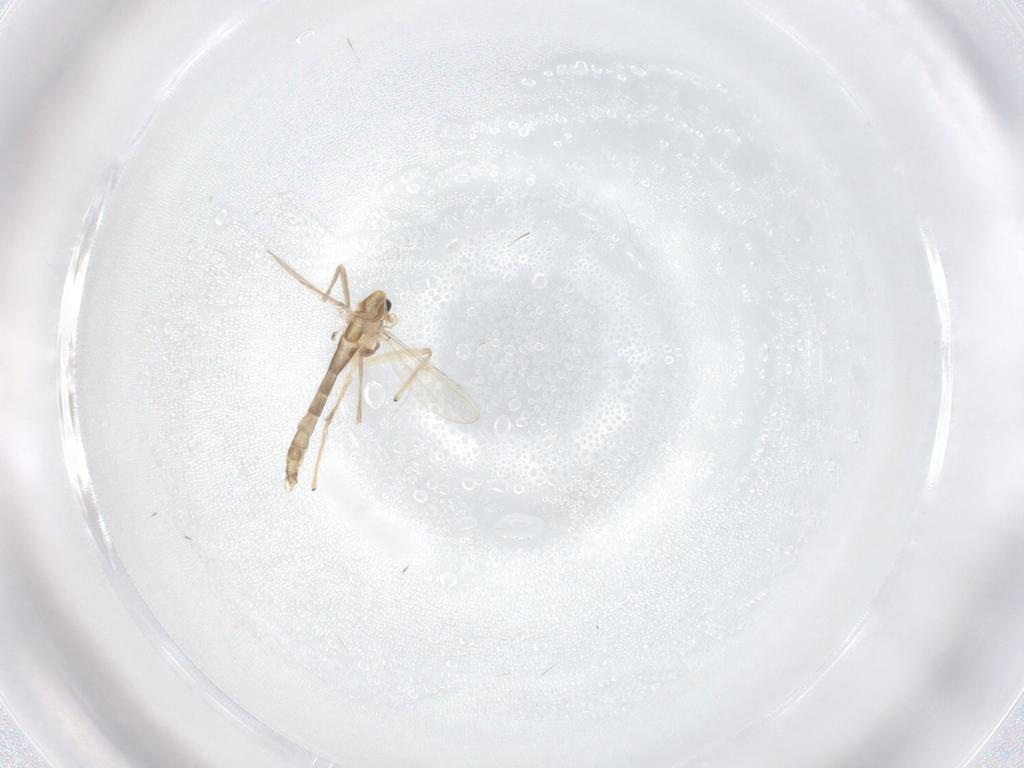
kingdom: Animalia
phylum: Arthropoda
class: Insecta
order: Diptera
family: Chironomidae
